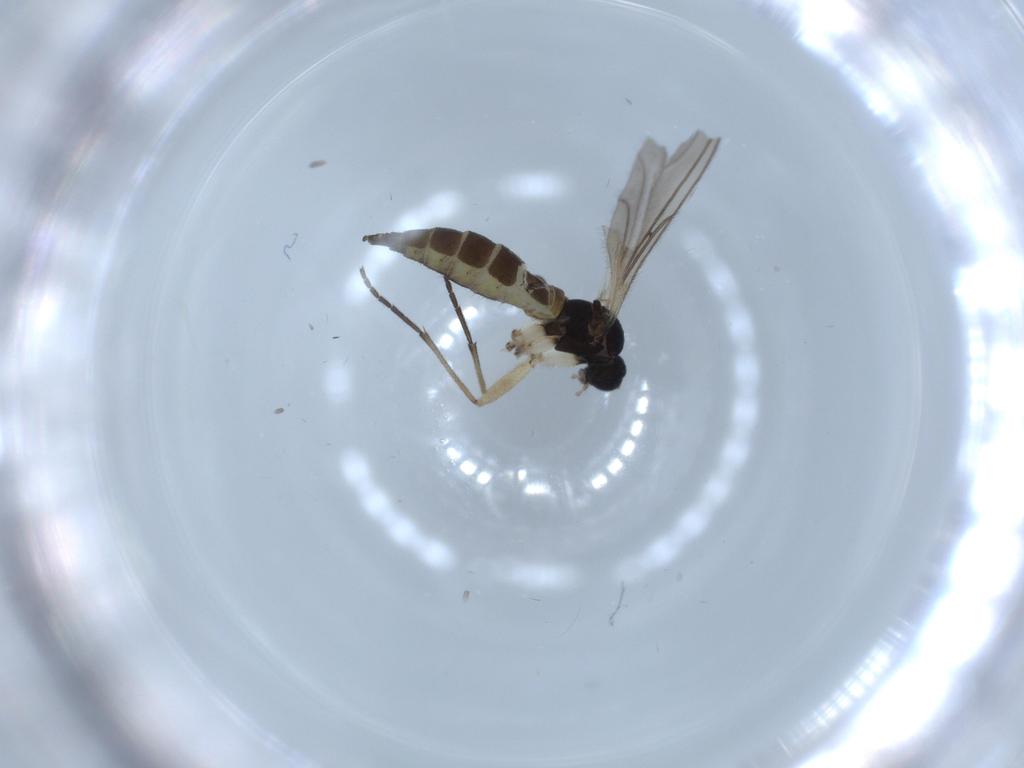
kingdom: Animalia
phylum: Arthropoda
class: Insecta
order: Diptera
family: Sciaridae
